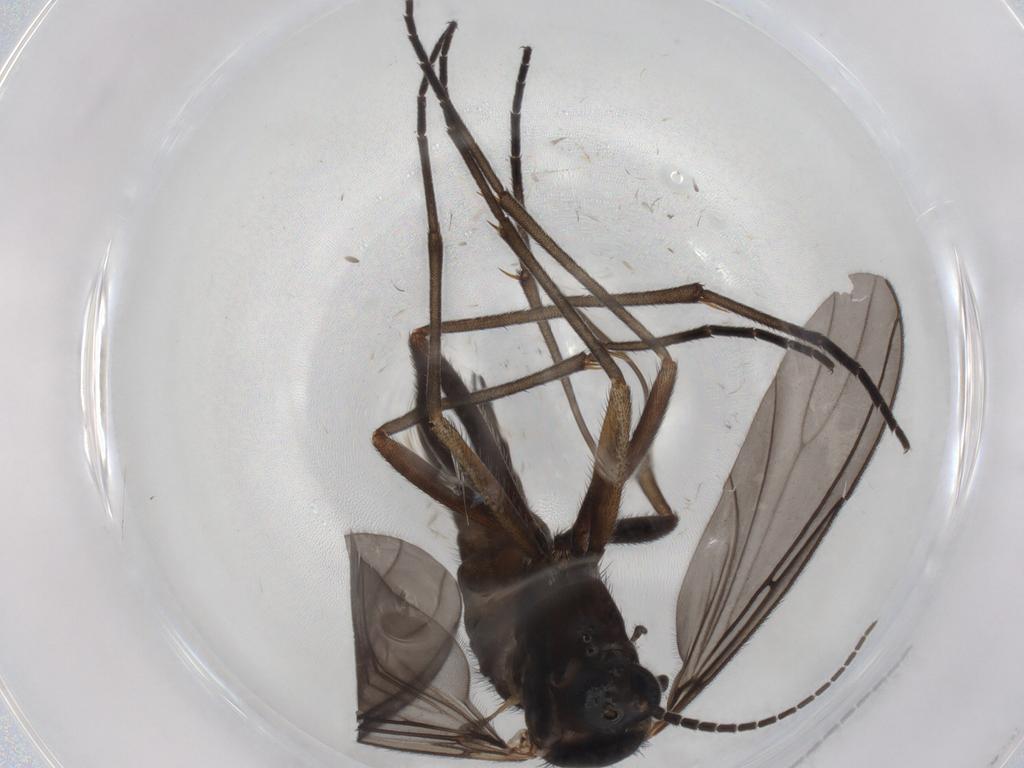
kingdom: Animalia
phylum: Arthropoda
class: Insecta
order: Diptera
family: Sciaridae
